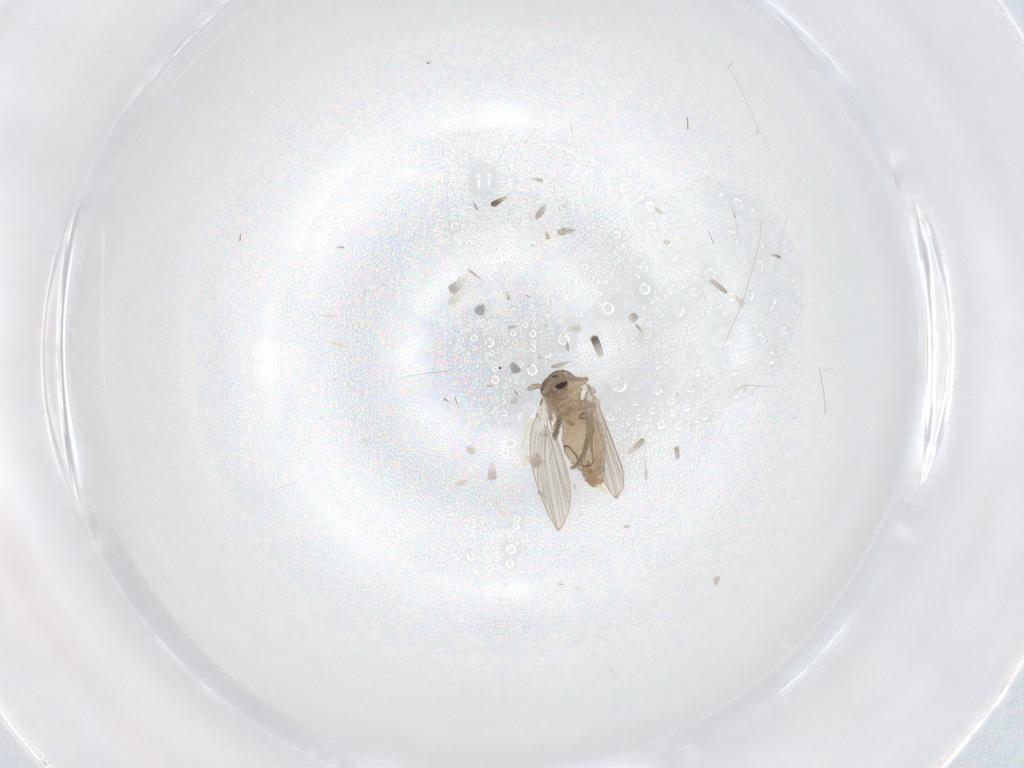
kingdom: Animalia
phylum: Arthropoda
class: Insecta
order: Diptera
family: Psychodidae
